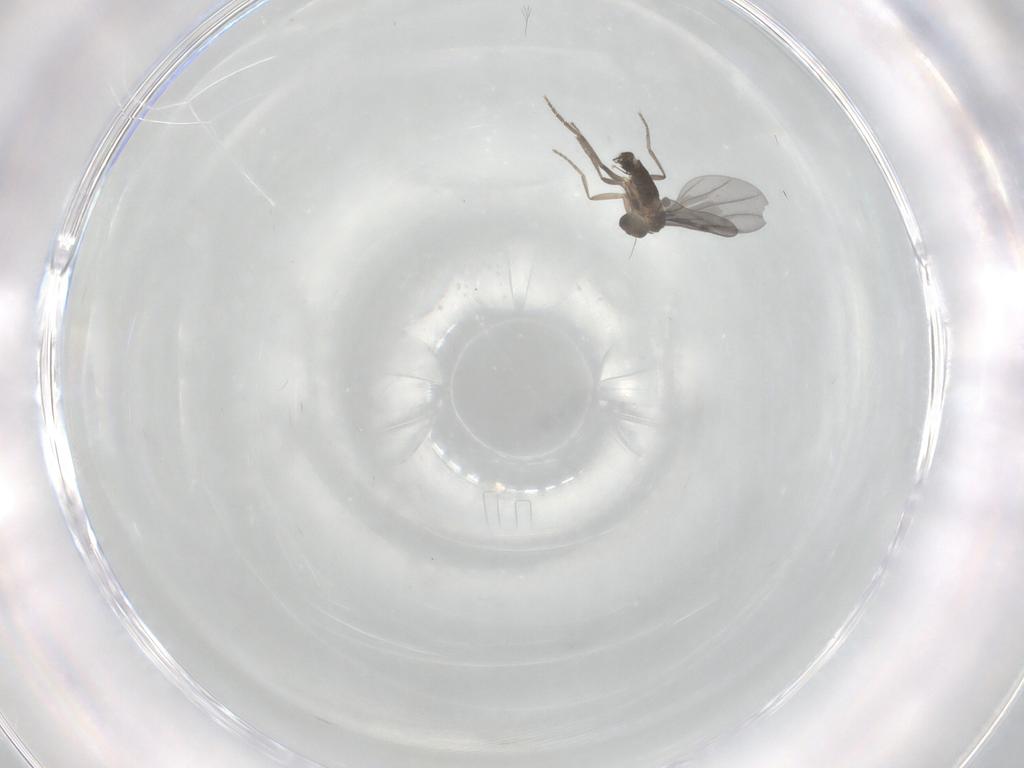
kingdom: Animalia
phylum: Arthropoda
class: Insecta
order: Diptera
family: Phoridae
